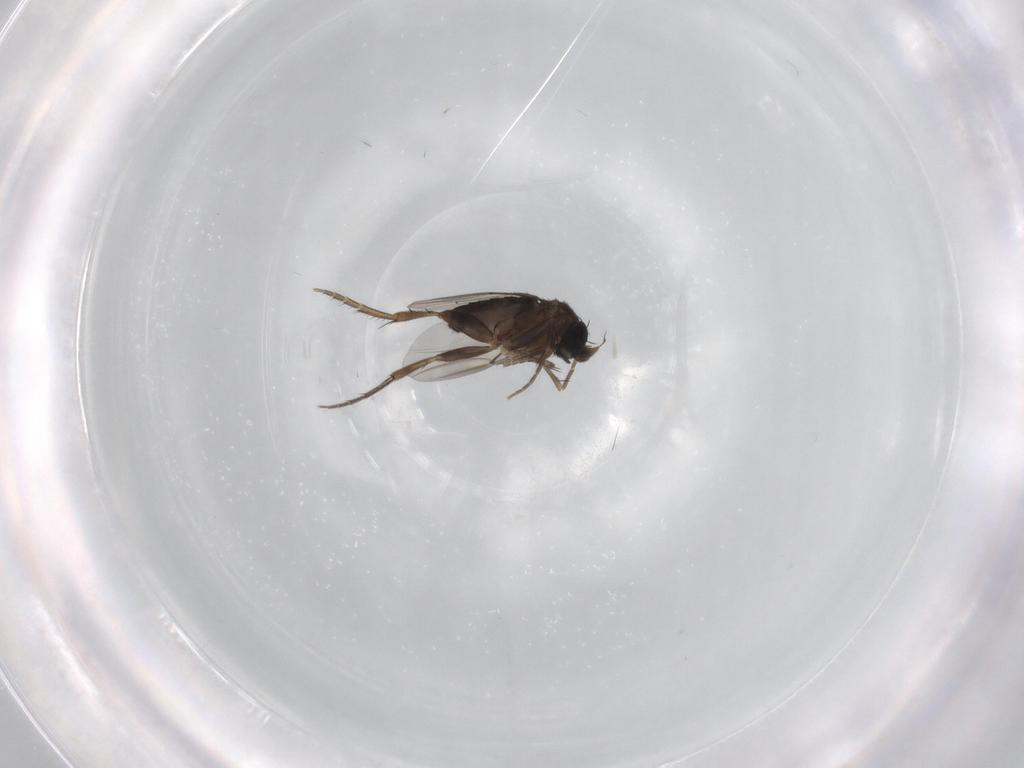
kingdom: Animalia
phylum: Arthropoda
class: Insecta
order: Diptera
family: Phoridae
